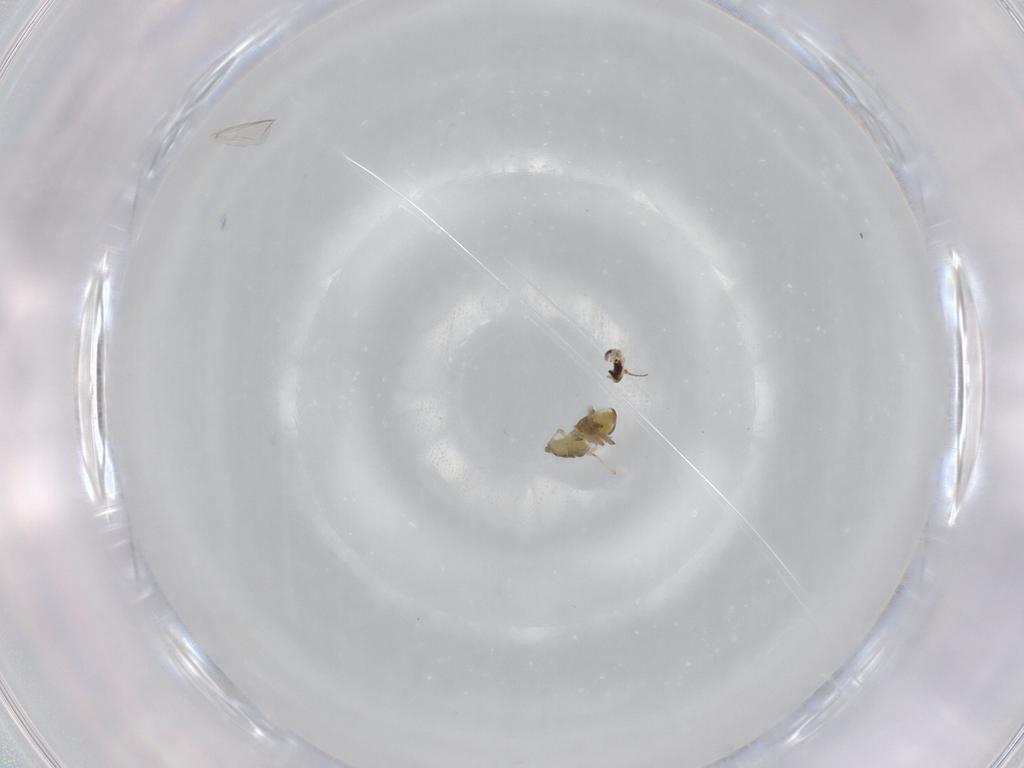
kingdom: Animalia
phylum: Arthropoda
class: Insecta
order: Diptera
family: Chironomidae
